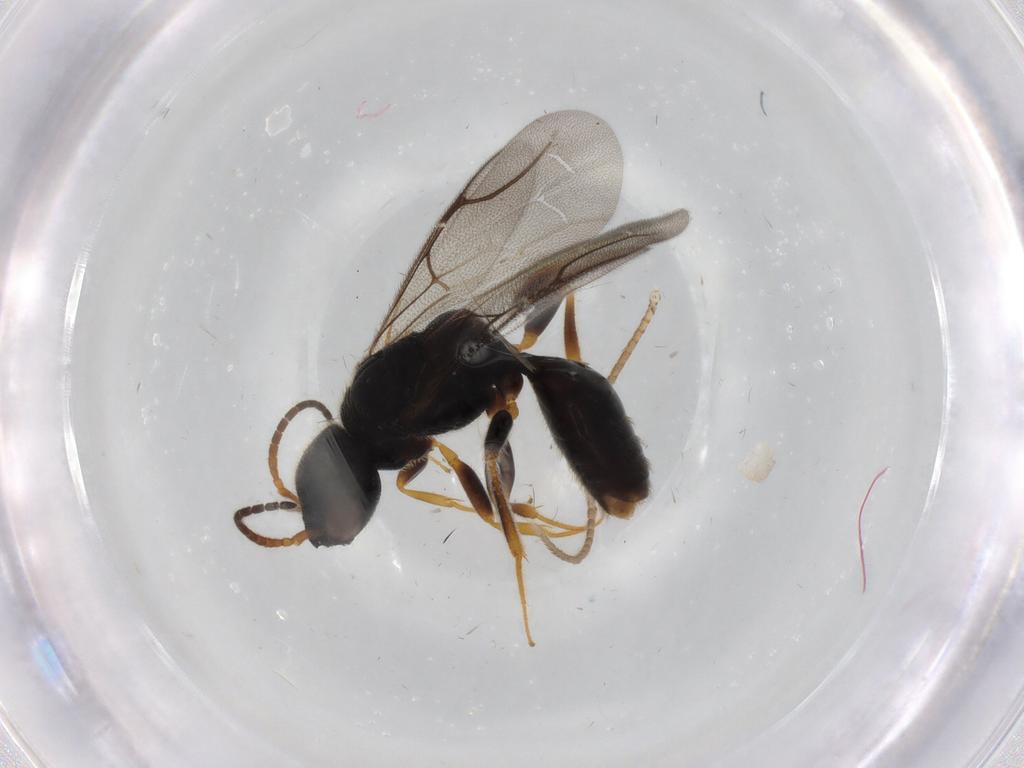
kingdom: Animalia
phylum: Arthropoda
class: Insecta
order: Hymenoptera
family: Bethylidae
